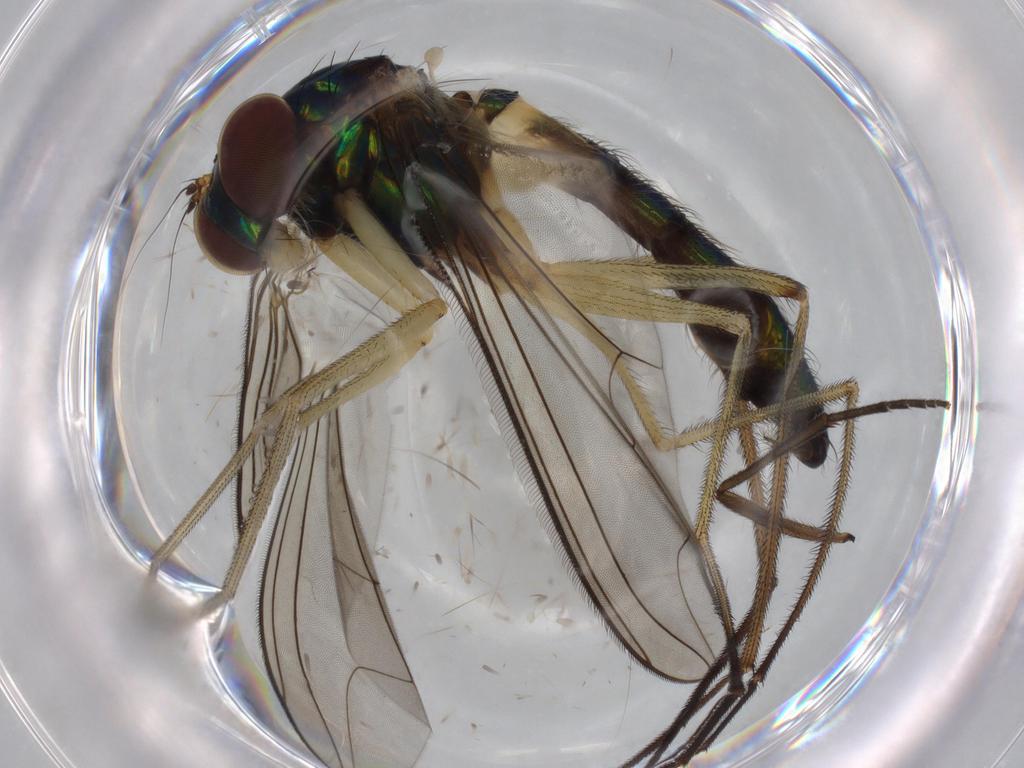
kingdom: Animalia
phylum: Arthropoda
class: Insecta
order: Diptera
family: Dolichopodidae
